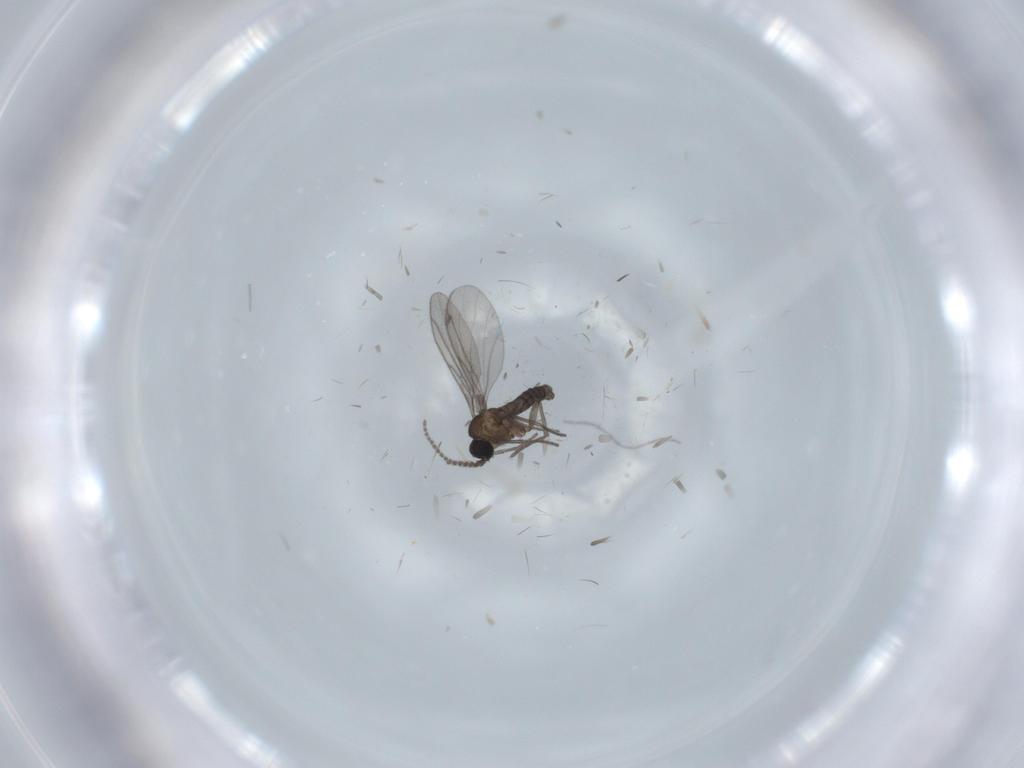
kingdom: Animalia
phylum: Arthropoda
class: Insecta
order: Diptera
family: Cecidomyiidae
